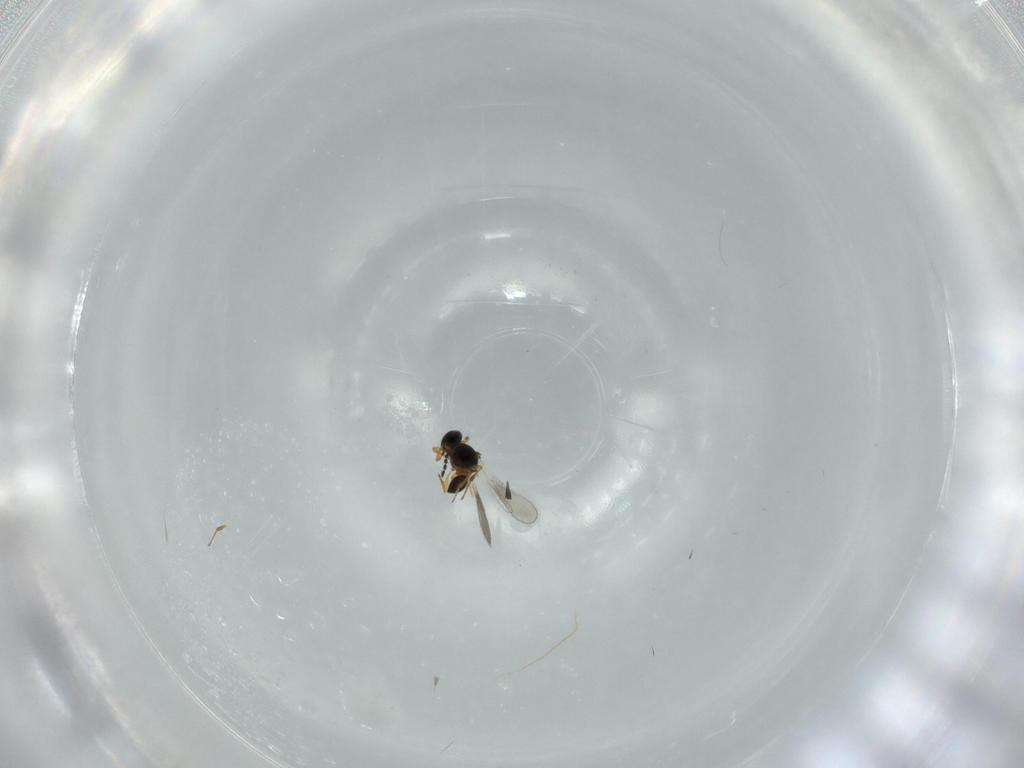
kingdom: Animalia
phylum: Arthropoda
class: Insecta
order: Hymenoptera
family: Platygastridae
